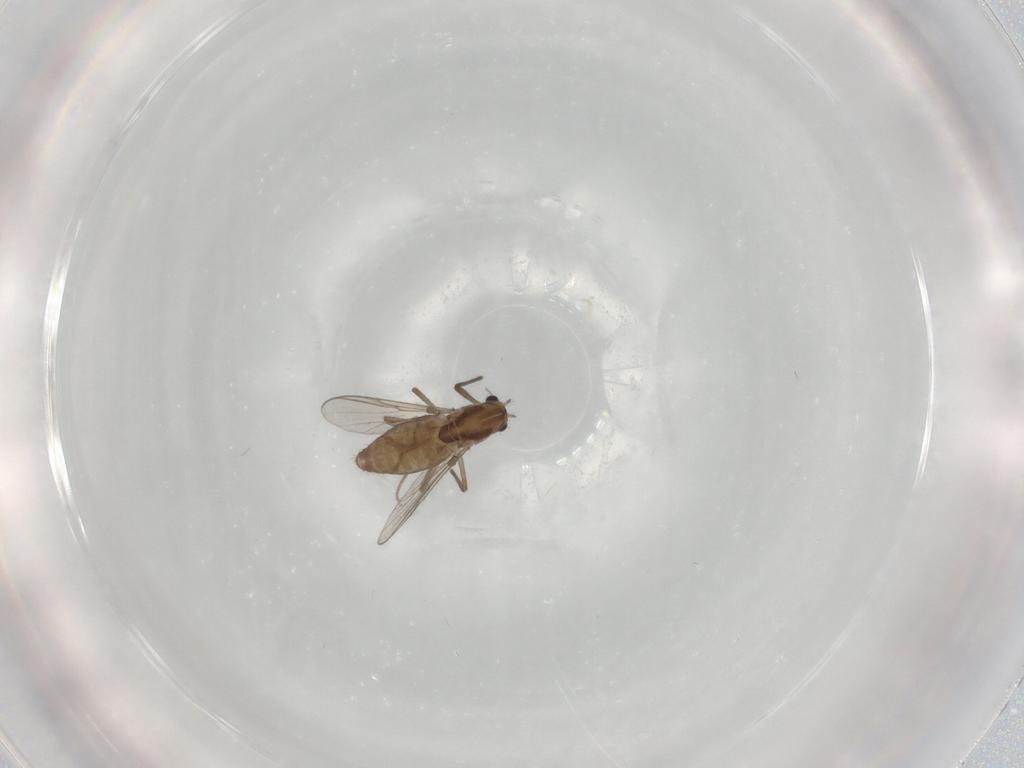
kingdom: Animalia
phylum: Arthropoda
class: Insecta
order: Diptera
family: Chironomidae
